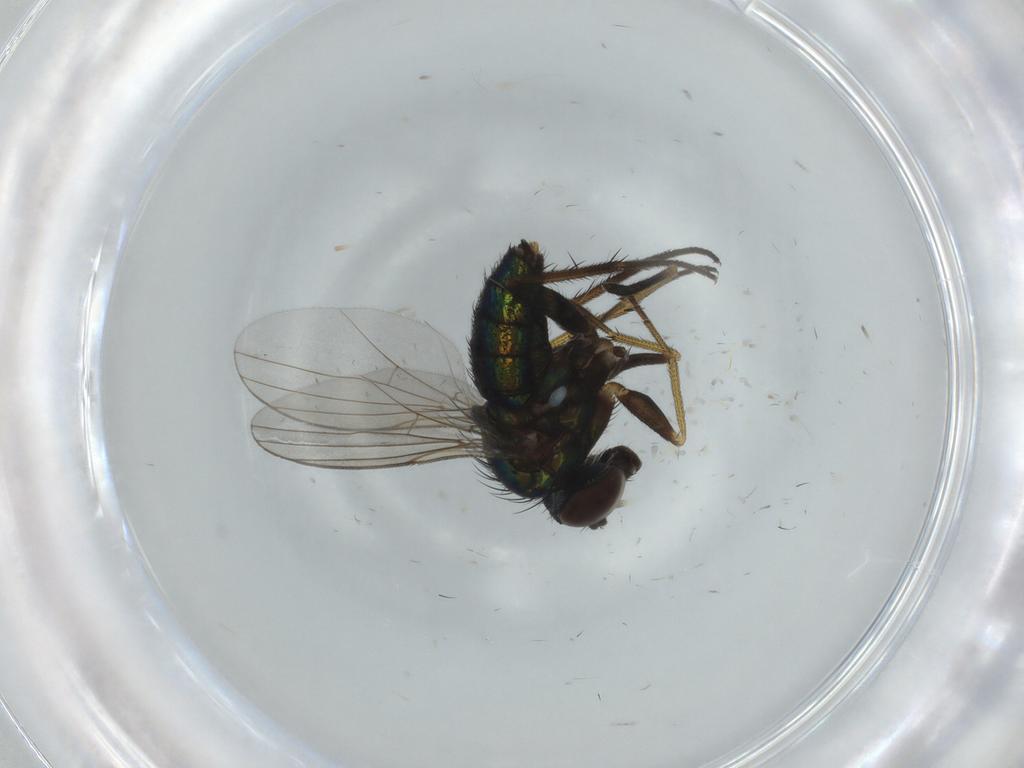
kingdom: Animalia
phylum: Arthropoda
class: Insecta
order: Diptera
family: Dolichopodidae
